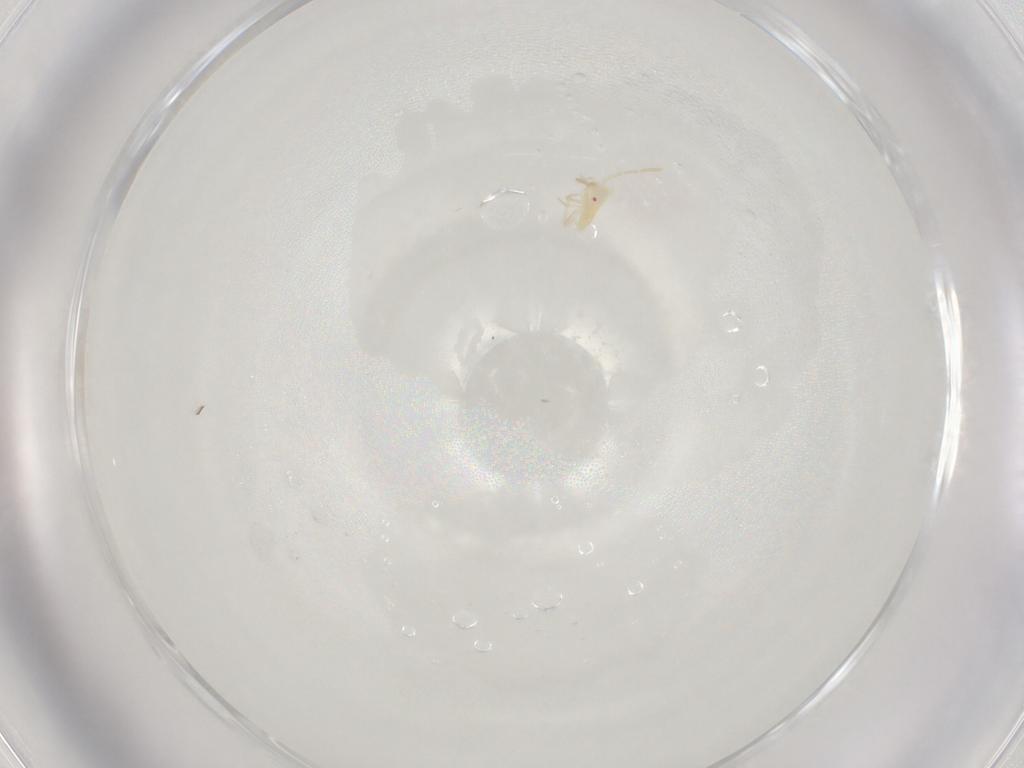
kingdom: Animalia
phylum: Arthropoda
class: Insecta
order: Hemiptera
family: Cicadellidae
